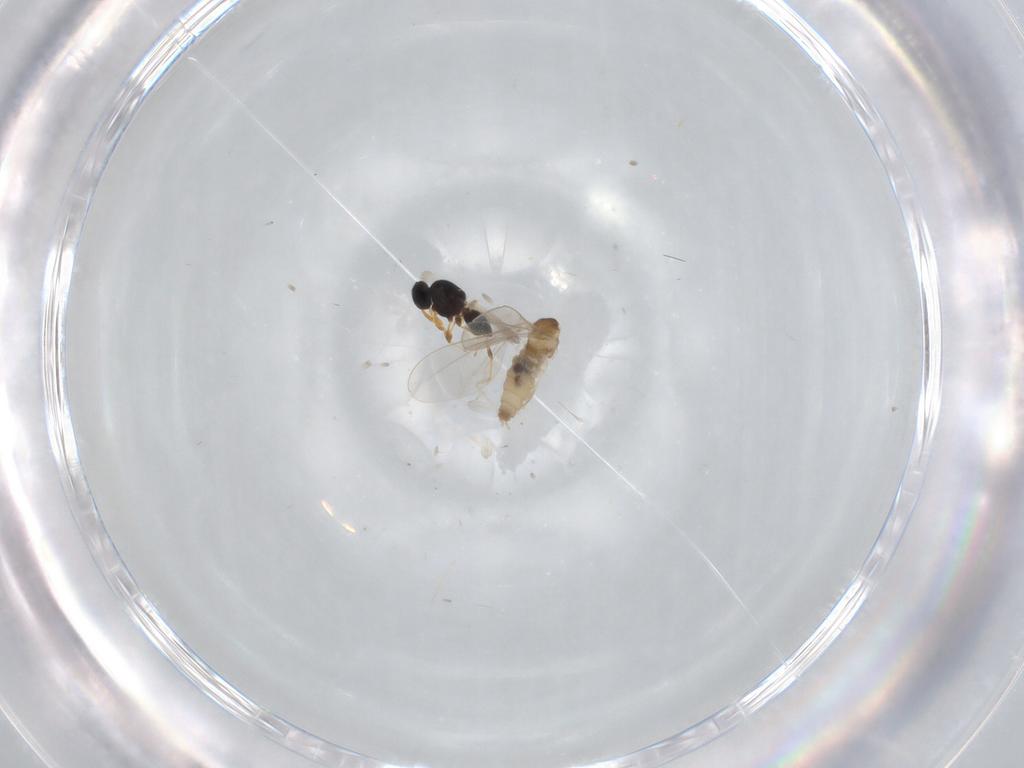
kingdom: Animalia
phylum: Arthropoda
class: Insecta
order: Diptera
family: Cecidomyiidae
